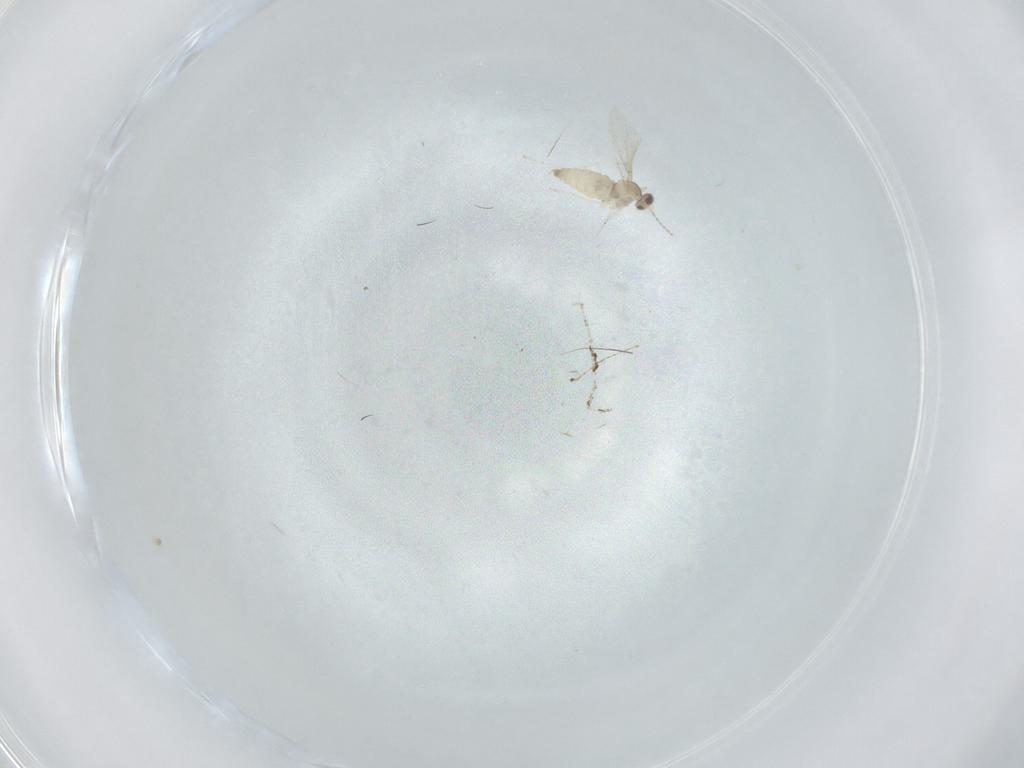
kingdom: Animalia
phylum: Arthropoda
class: Insecta
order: Diptera
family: Cecidomyiidae
